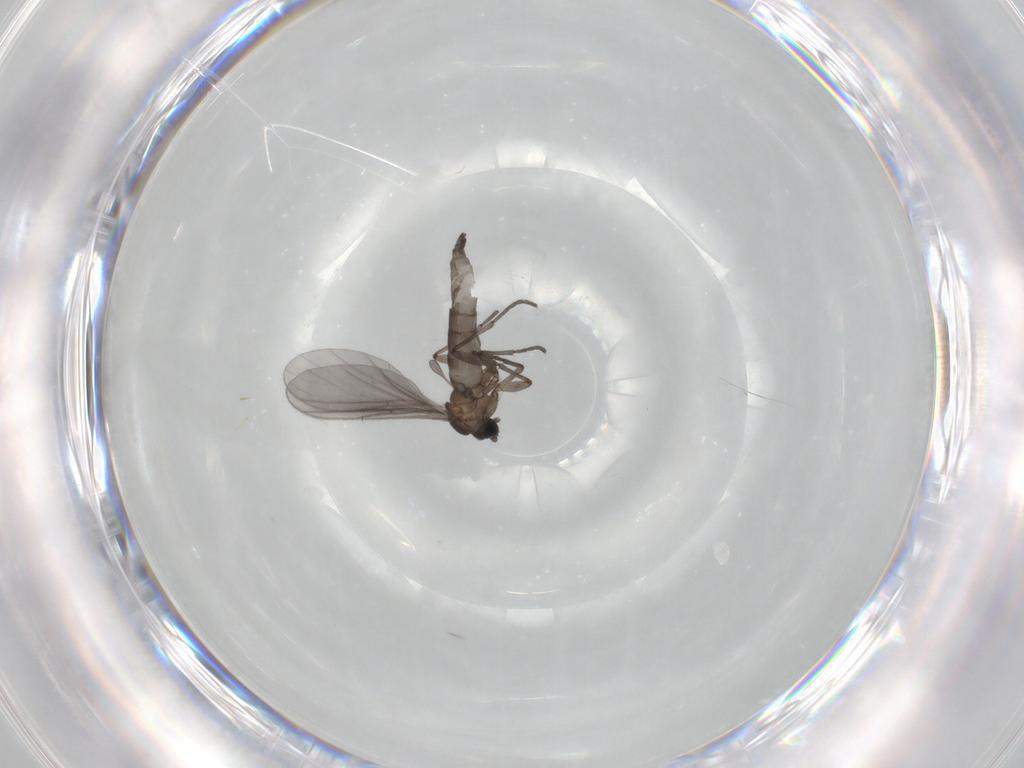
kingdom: Animalia
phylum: Arthropoda
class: Insecta
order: Diptera
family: Sciaridae
